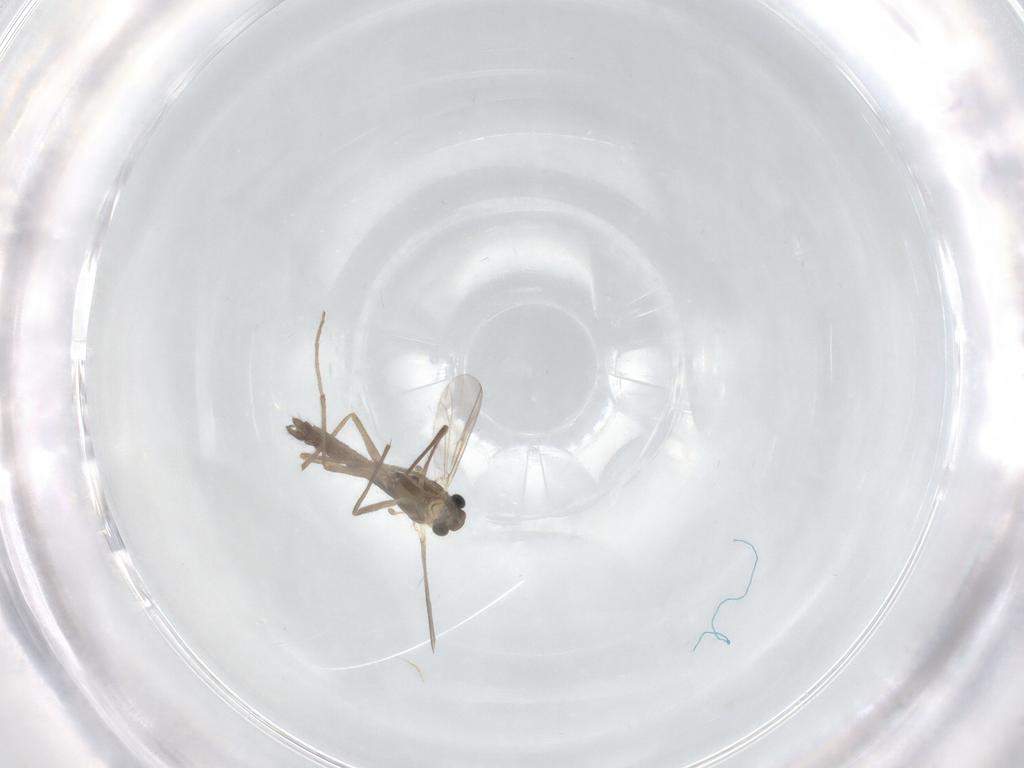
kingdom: Animalia
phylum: Arthropoda
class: Insecta
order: Diptera
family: Chironomidae
